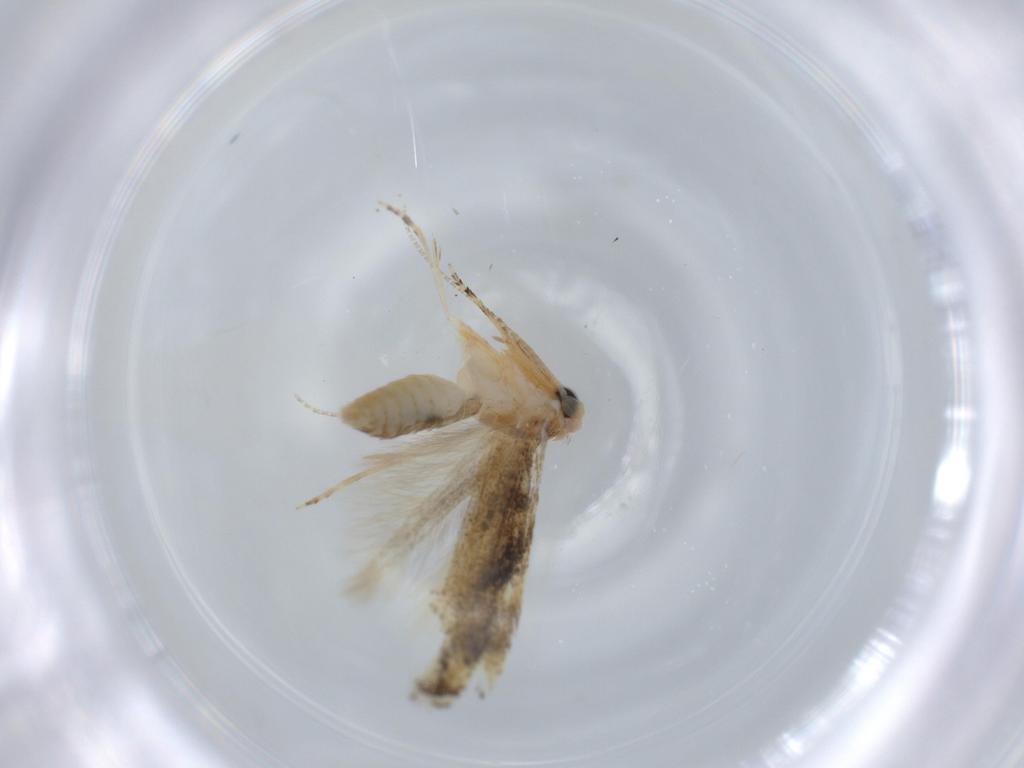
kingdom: Animalia
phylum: Arthropoda
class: Insecta
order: Lepidoptera
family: Bucculatricidae
